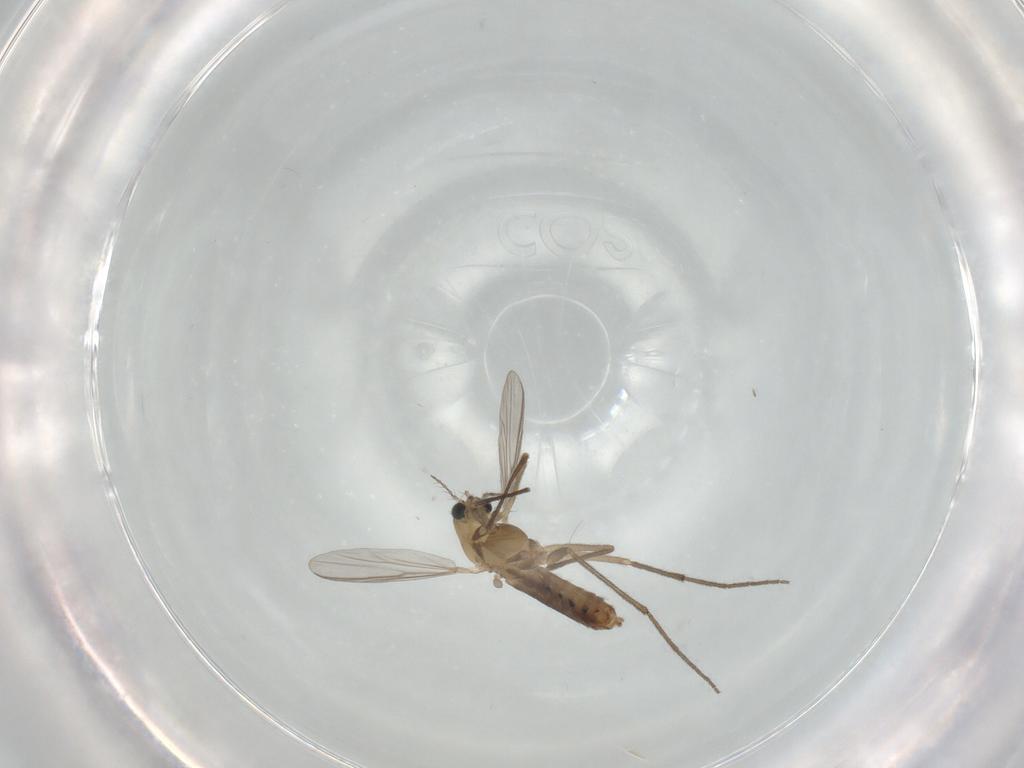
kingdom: Animalia
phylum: Arthropoda
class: Insecta
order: Diptera
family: Chironomidae
